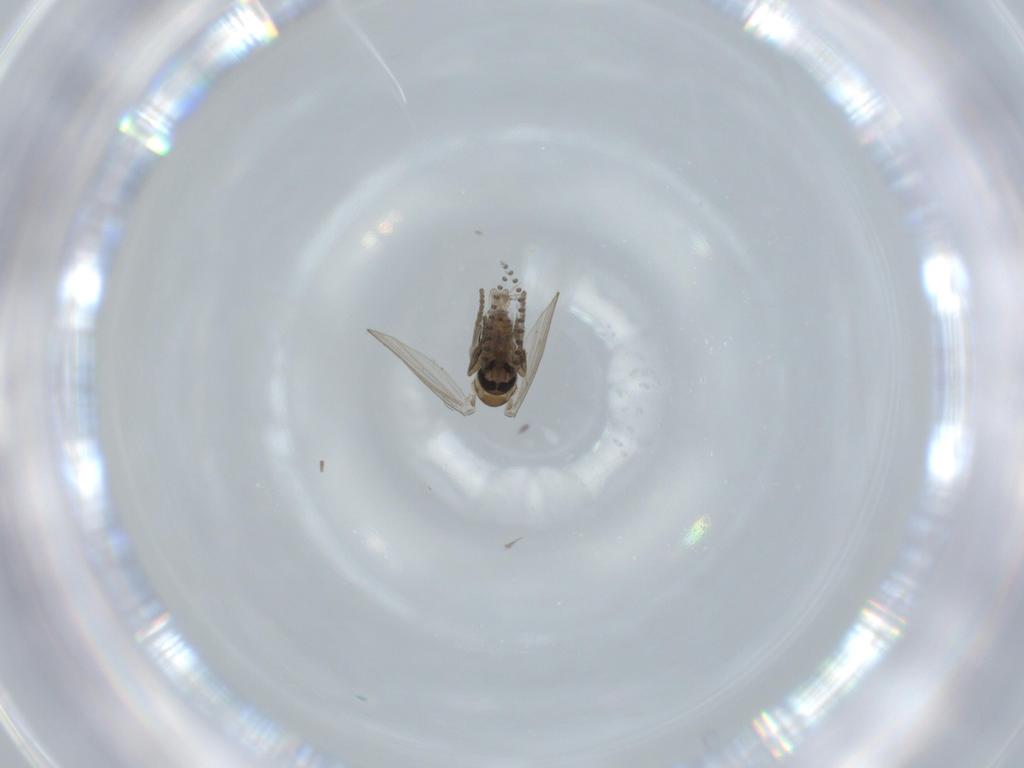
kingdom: Animalia
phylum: Arthropoda
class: Insecta
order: Diptera
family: Psychodidae
